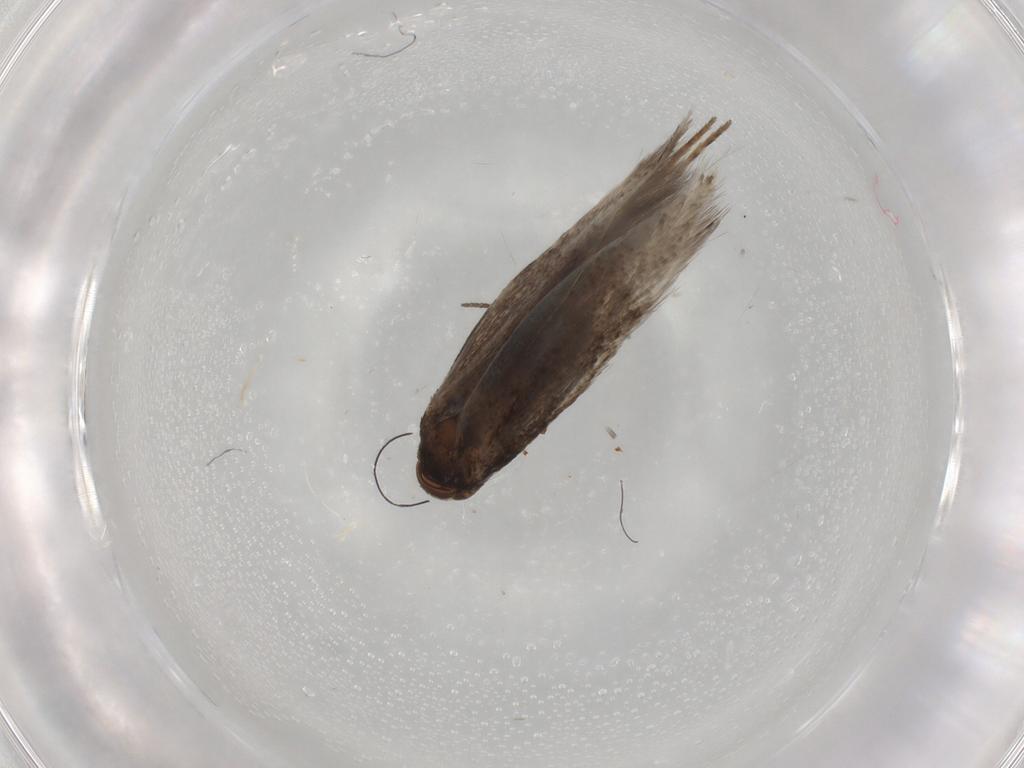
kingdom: Animalia
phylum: Arthropoda
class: Insecta
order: Lepidoptera
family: Elachistidae
